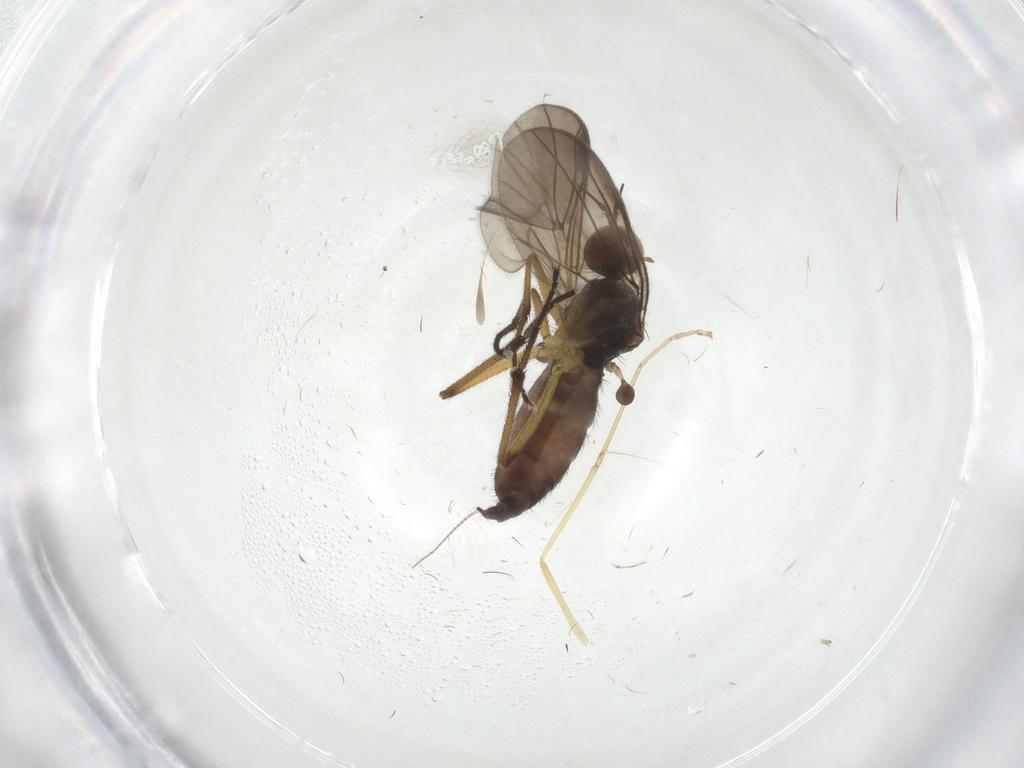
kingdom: Animalia
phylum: Arthropoda
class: Insecta
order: Diptera
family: Empididae
